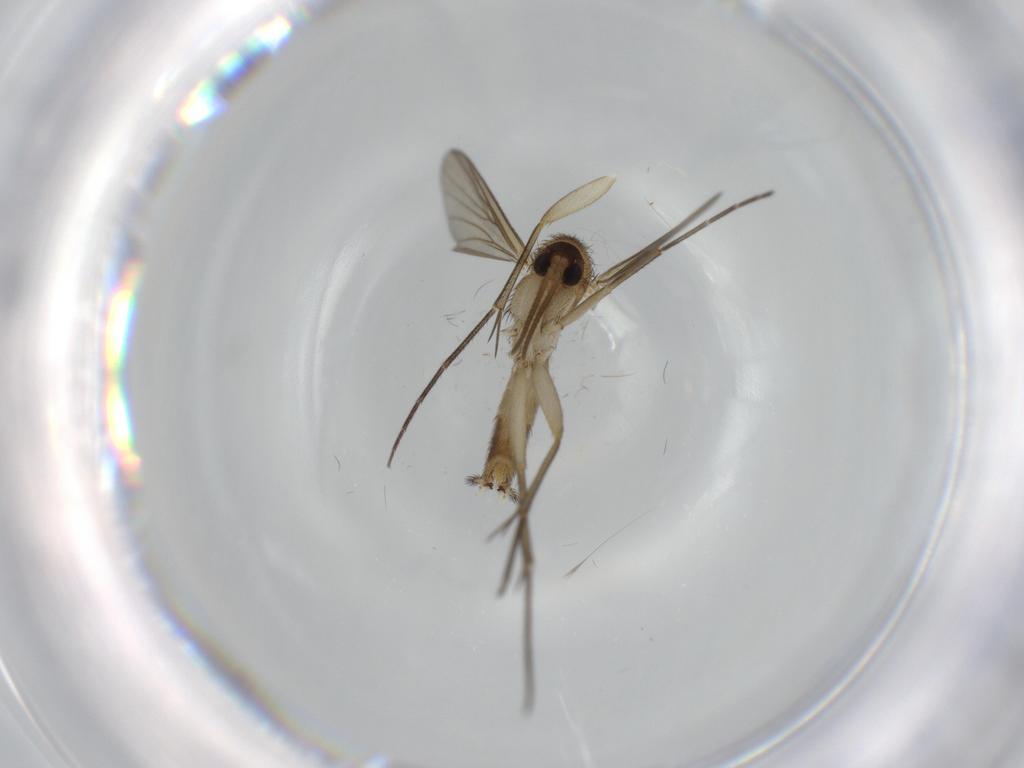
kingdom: Animalia
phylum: Arthropoda
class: Insecta
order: Diptera
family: Mycetophilidae
